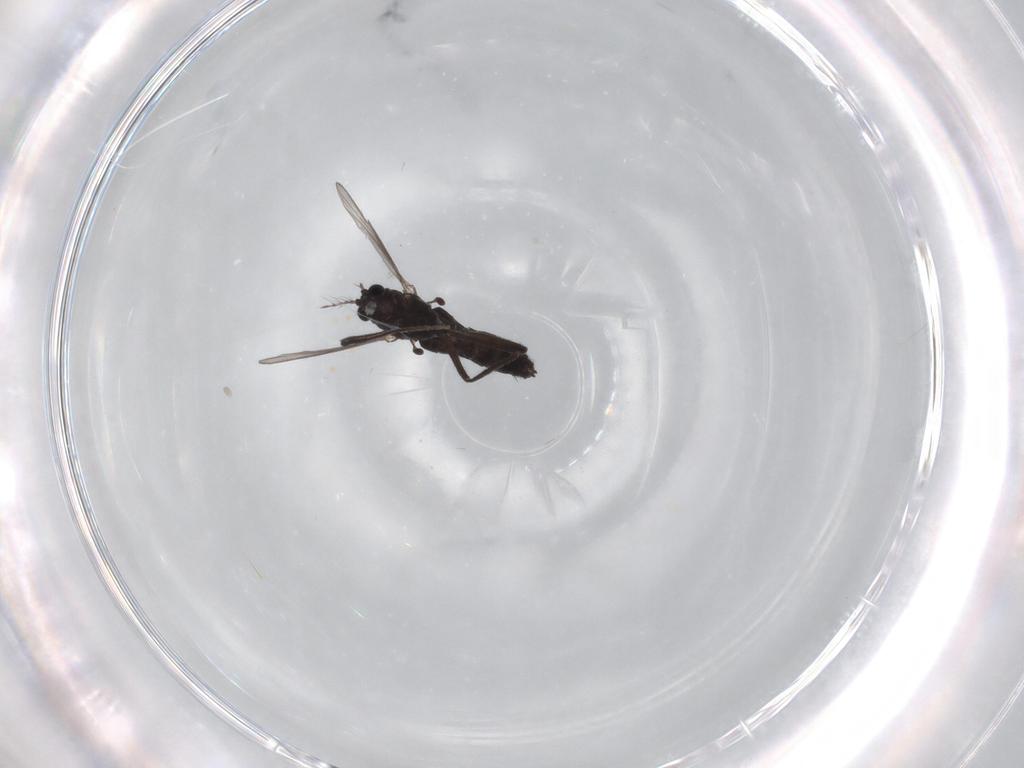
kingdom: Animalia
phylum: Arthropoda
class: Insecta
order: Diptera
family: Chironomidae
